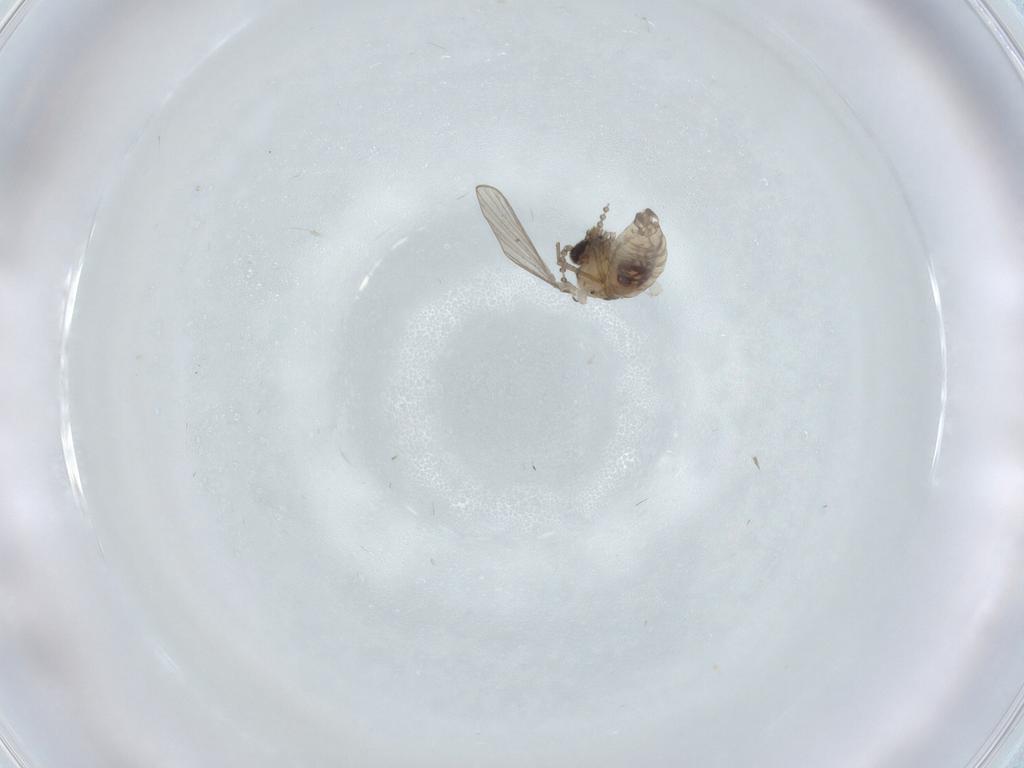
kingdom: Animalia
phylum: Arthropoda
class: Insecta
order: Diptera
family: Psychodidae
